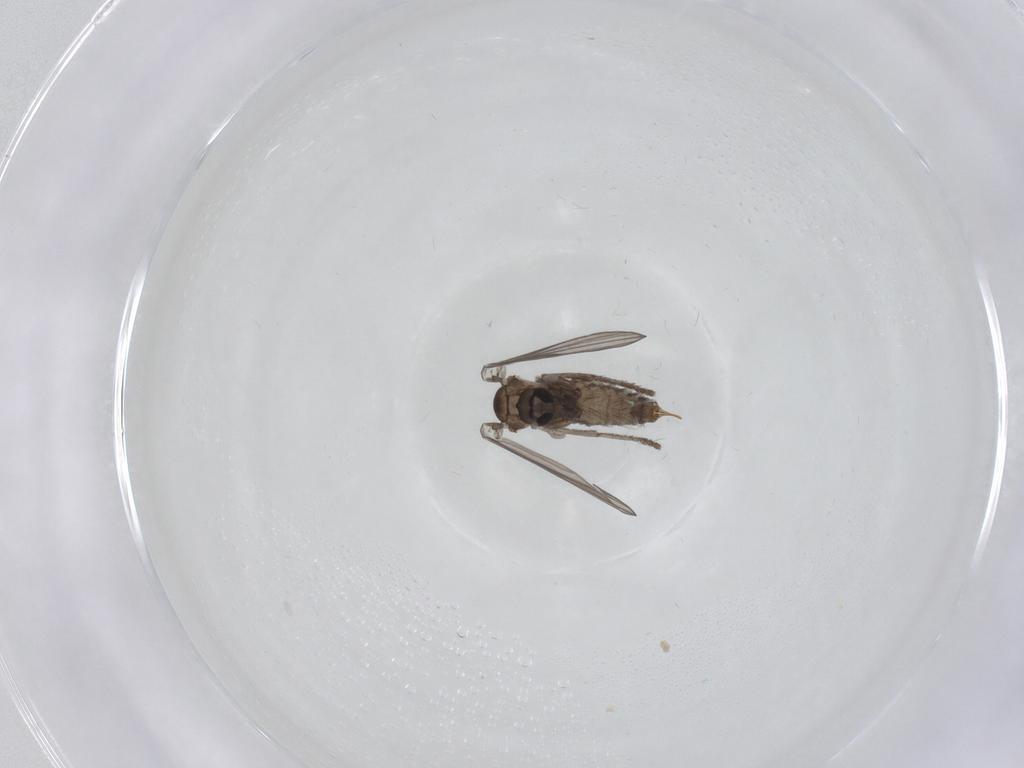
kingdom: Animalia
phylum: Arthropoda
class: Insecta
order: Diptera
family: Psychodidae
